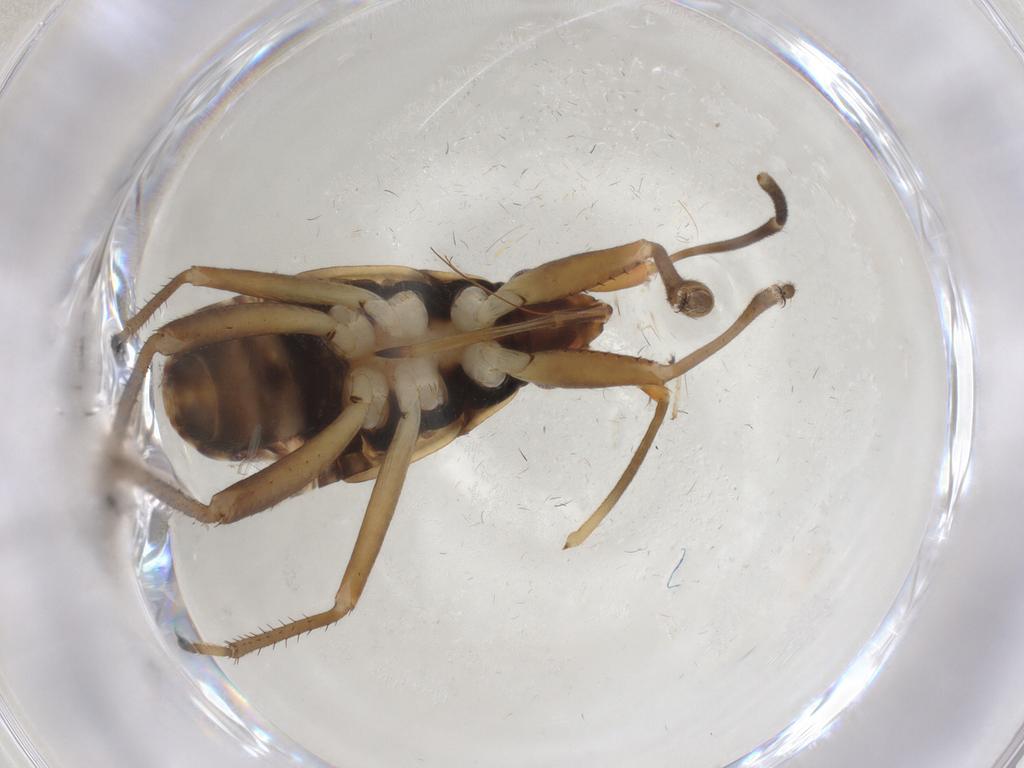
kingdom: Animalia
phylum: Arthropoda
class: Insecta
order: Hemiptera
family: Rhyparochromidae
